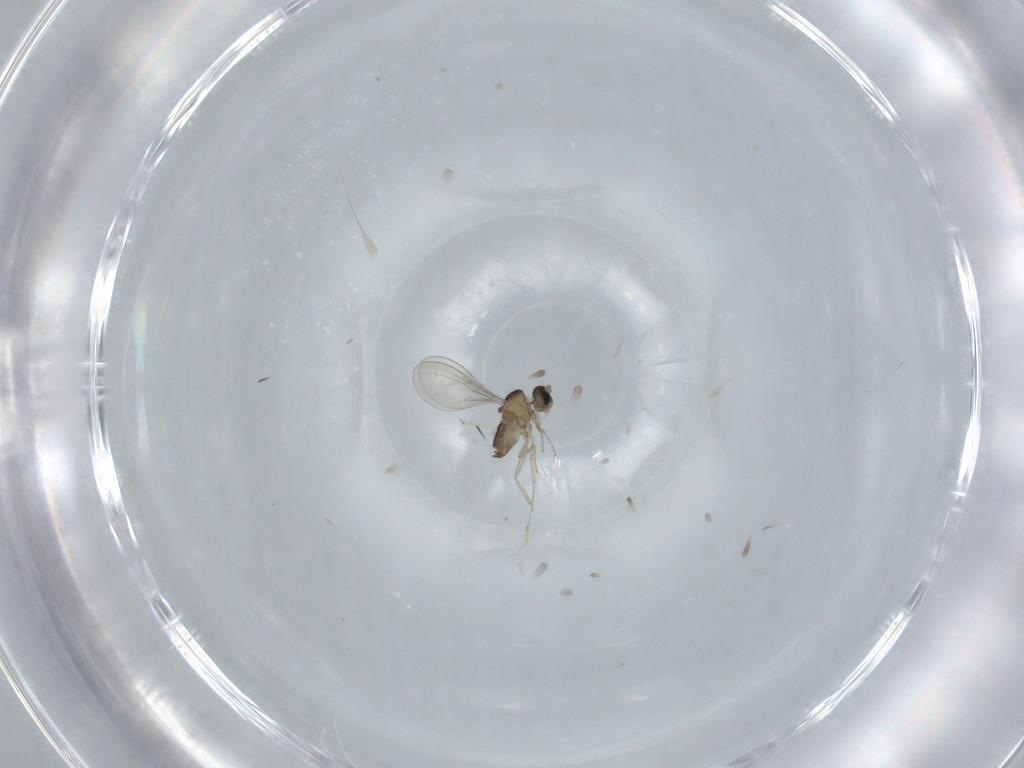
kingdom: Animalia
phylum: Arthropoda
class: Insecta
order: Diptera
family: Cecidomyiidae
